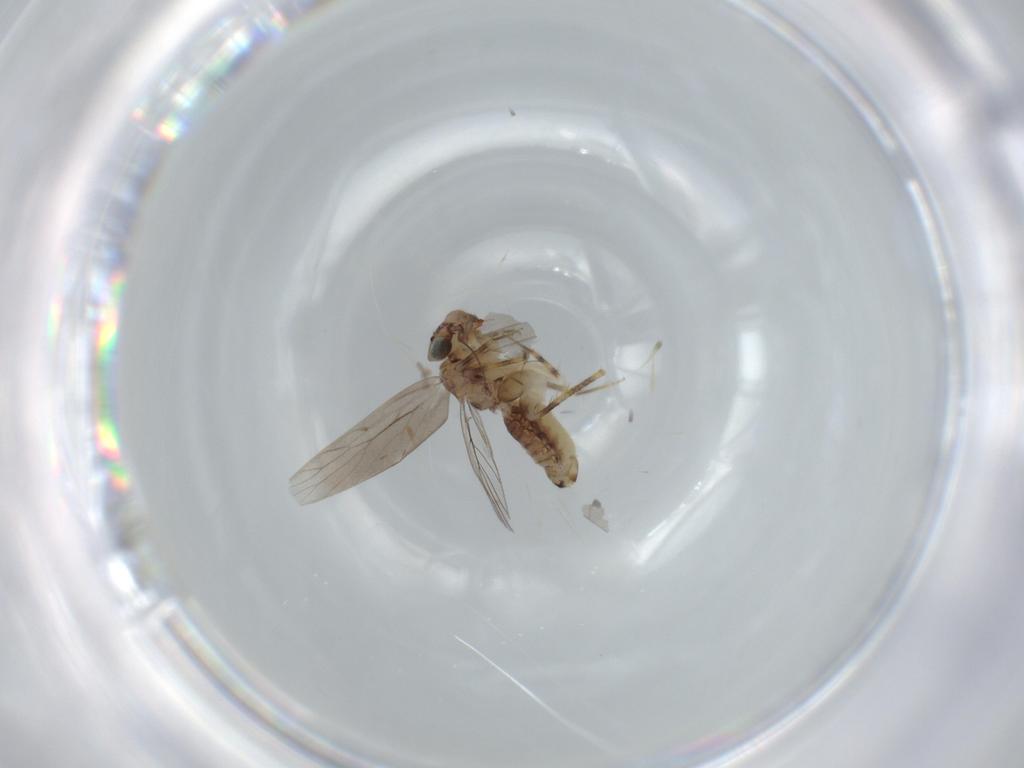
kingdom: Animalia
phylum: Arthropoda
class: Insecta
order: Psocodea
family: Lepidopsocidae
